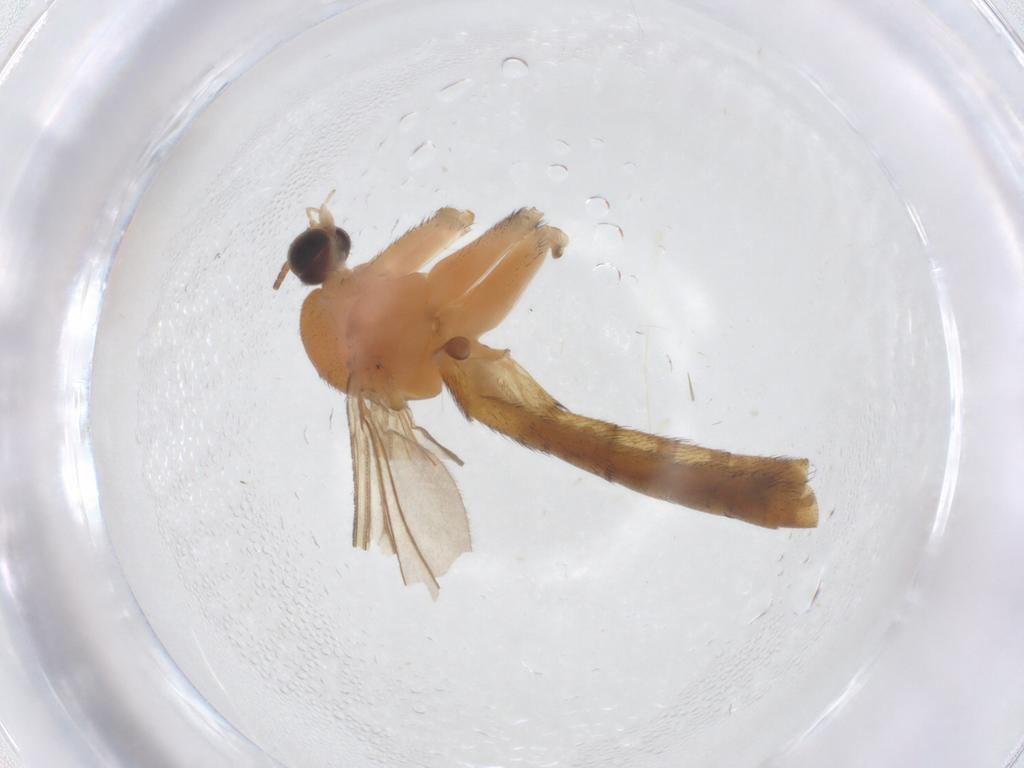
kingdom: Animalia
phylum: Arthropoda
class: Insecta
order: Diptera
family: Keroplatidae
